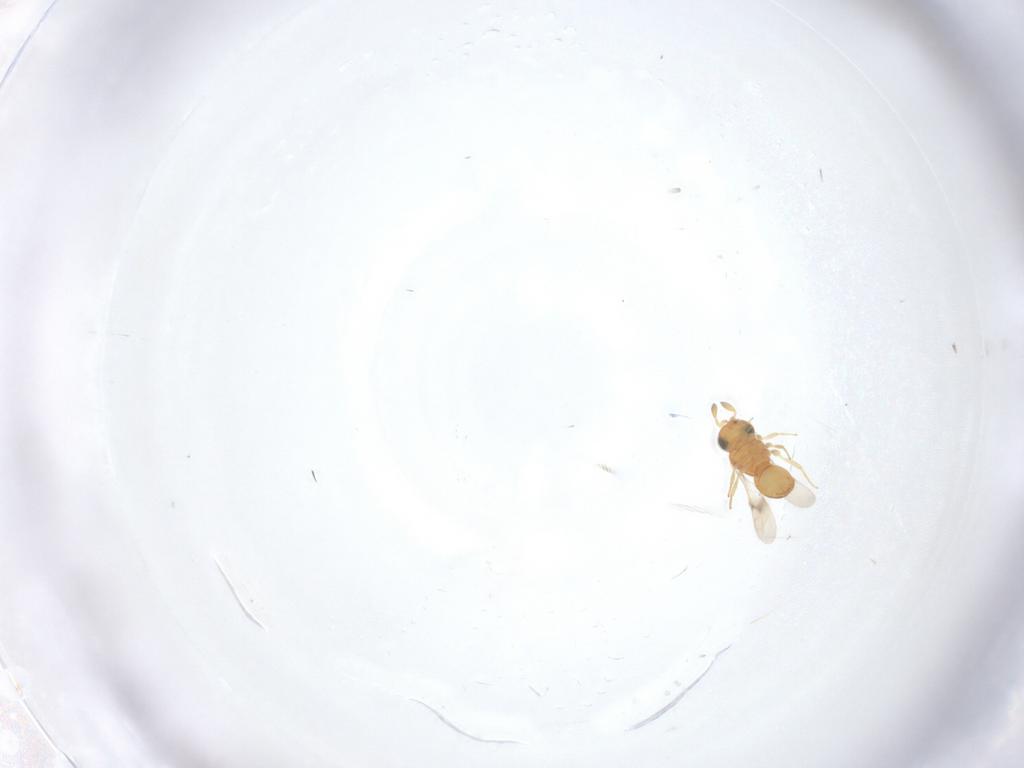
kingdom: Animalia
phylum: Arthropoda
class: Insecta
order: Hymenoptera
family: Scelionidae
